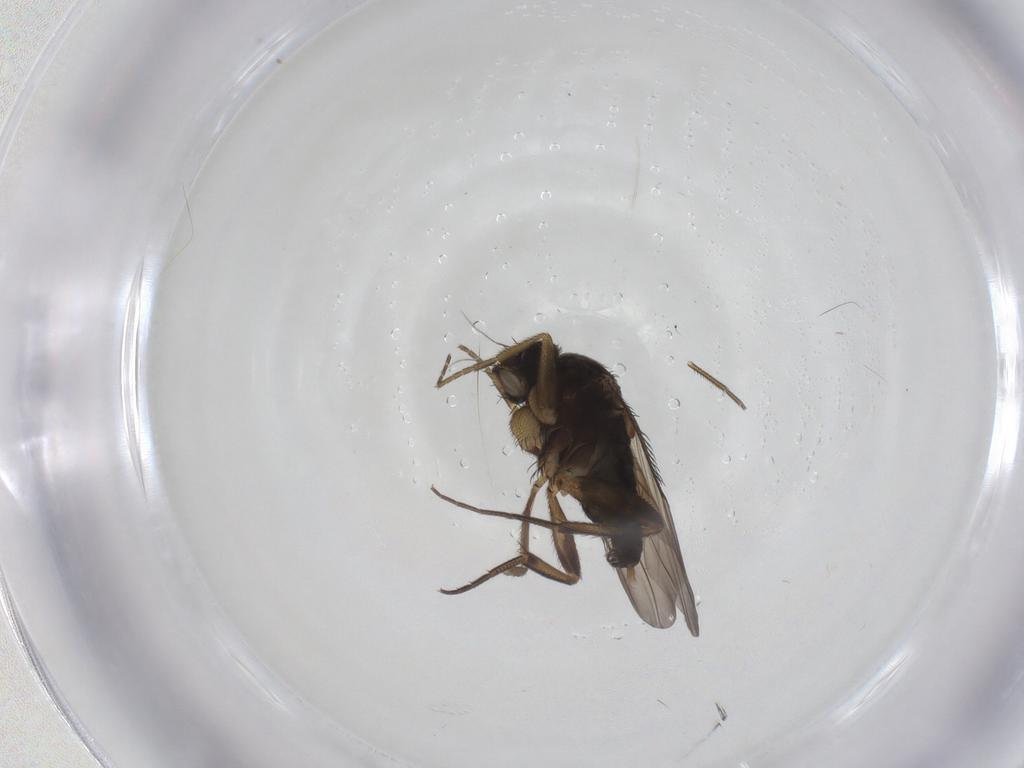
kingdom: Animalia
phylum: Arthropoda
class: Insecta
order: Diptera
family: Phoridae
